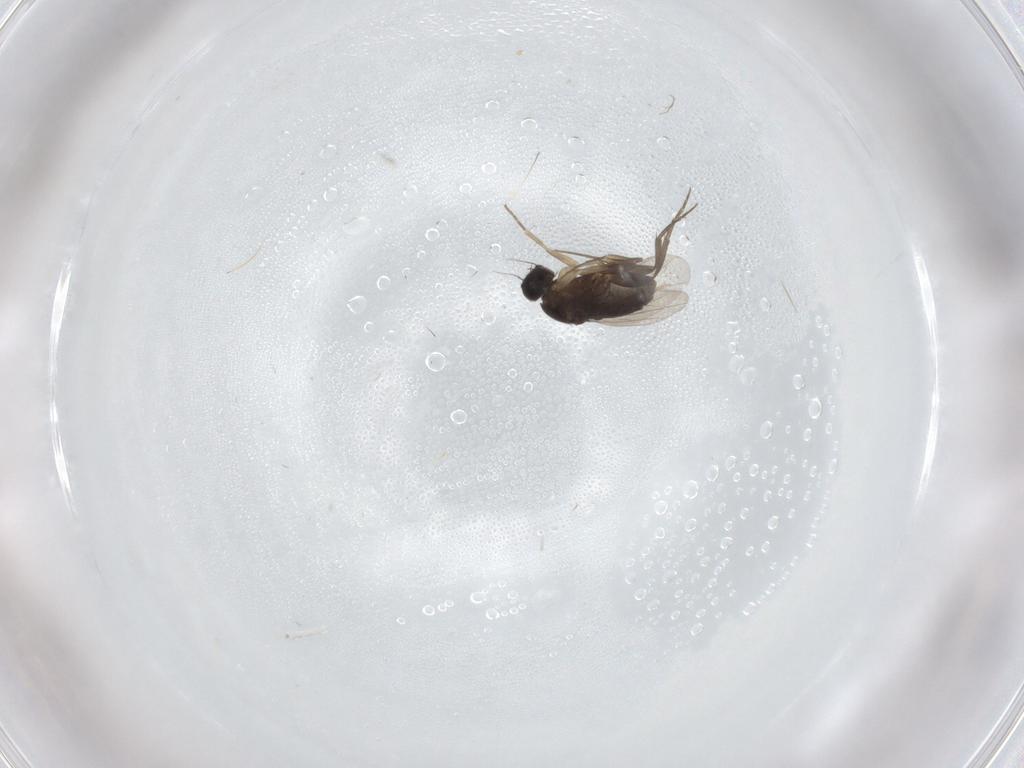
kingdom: Animalia
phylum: Arthropoda
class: Insecta
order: Diptera
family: Phoridae
